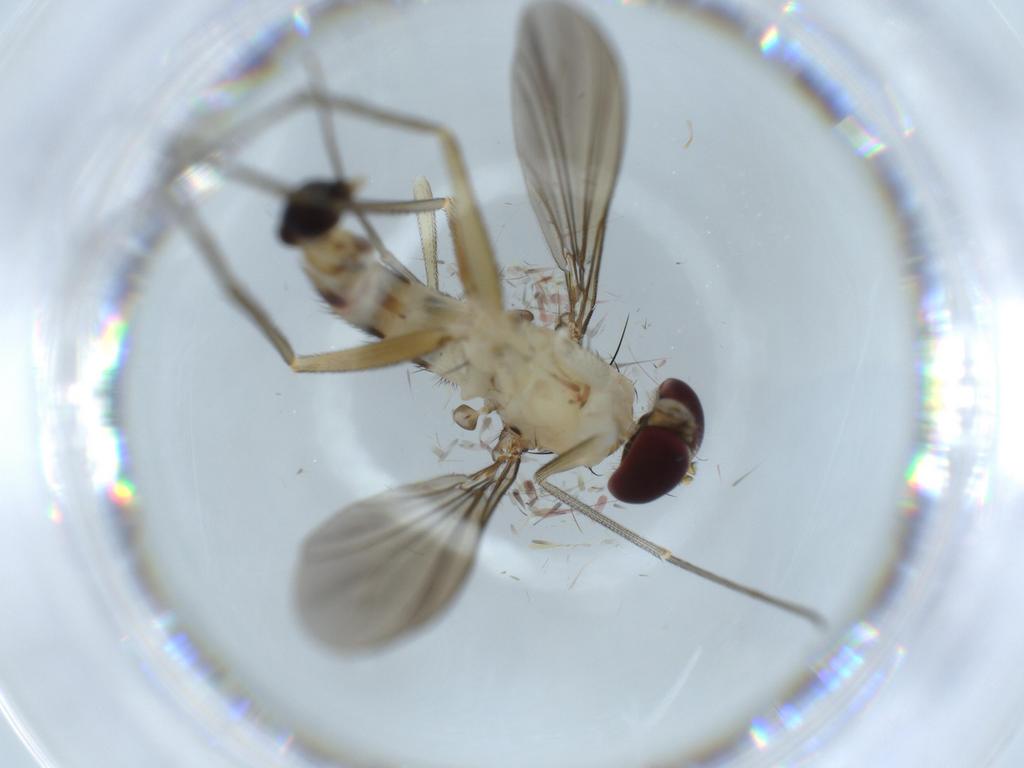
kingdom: Animalia
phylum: Arthropoda
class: Insecta
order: Diptera
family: Dolichopodidae
